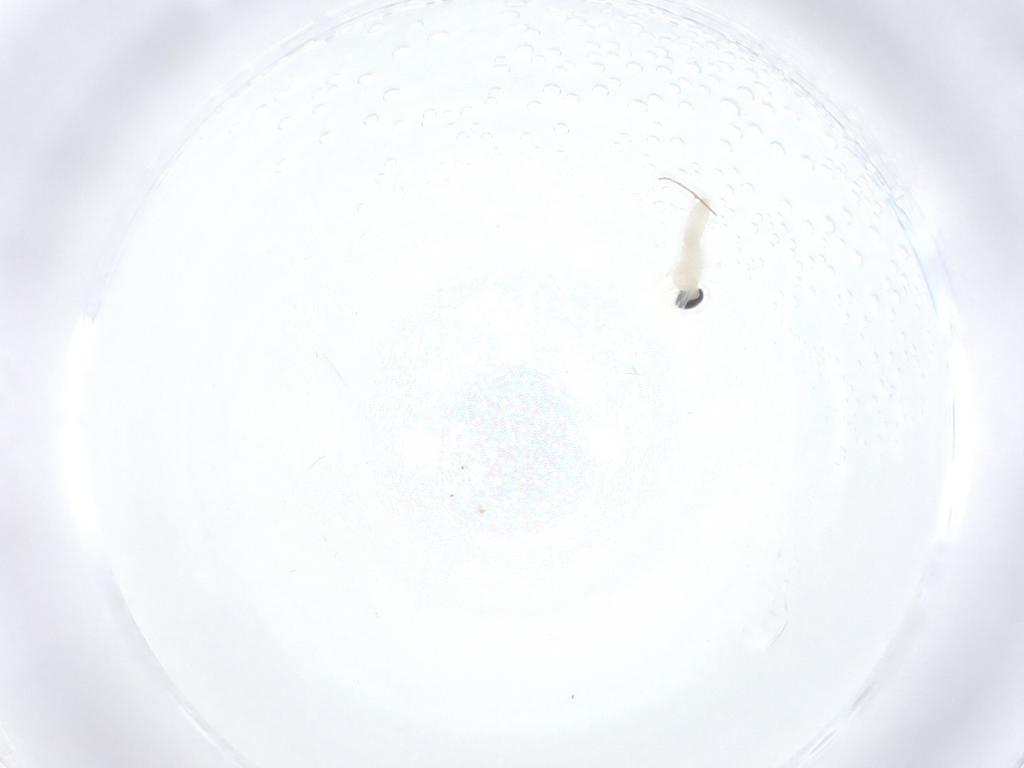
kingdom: Animalia
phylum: Arthropoda
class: Insecta
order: Diptera
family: Cecidomyiidae
